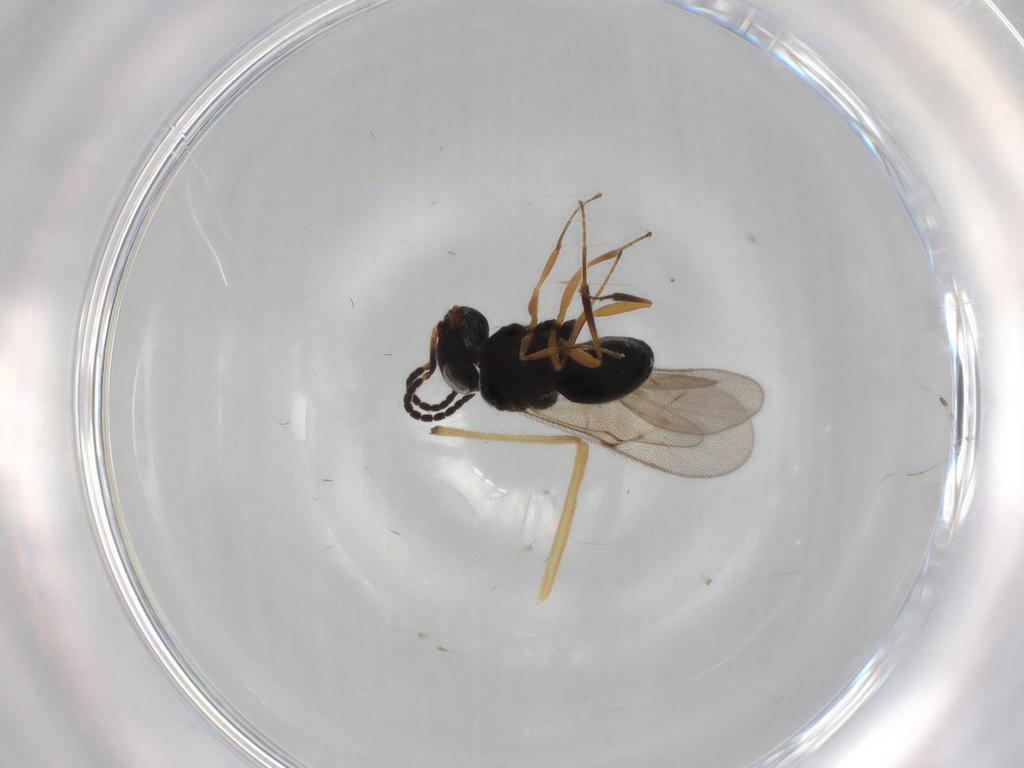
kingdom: Animalia
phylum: Arthropoda
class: Insecta
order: Hymenoptera
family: Scelionidae
